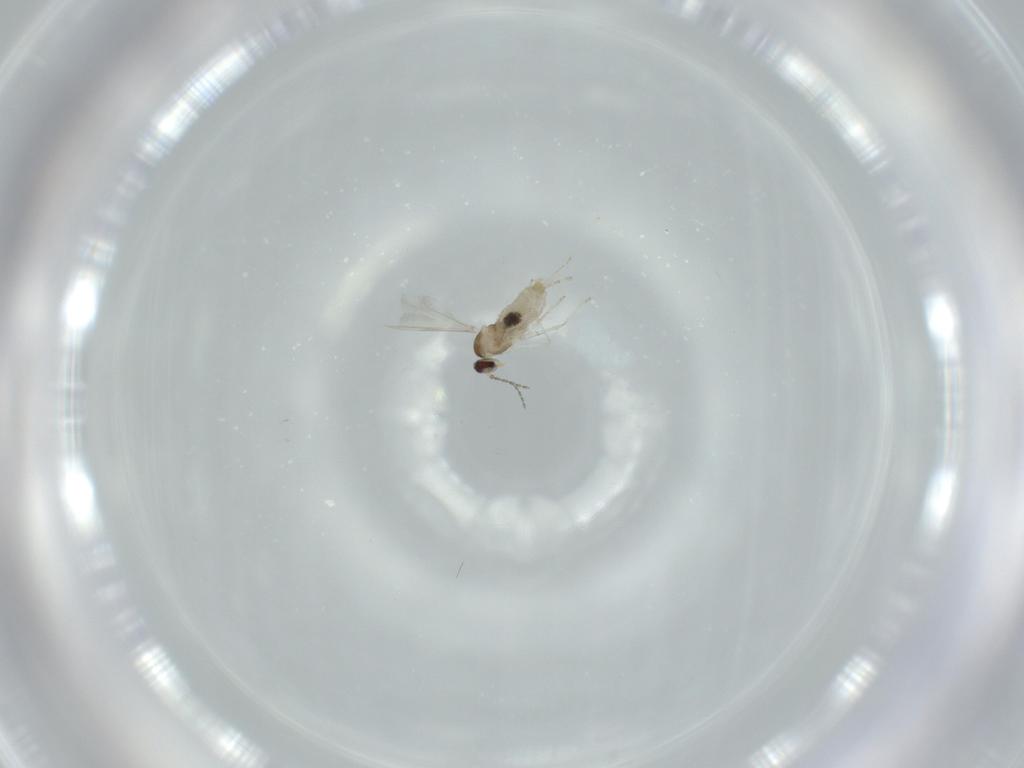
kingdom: Animalia
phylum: Arthropoda
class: Insecta
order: Diptera
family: Cecidomyiidae
